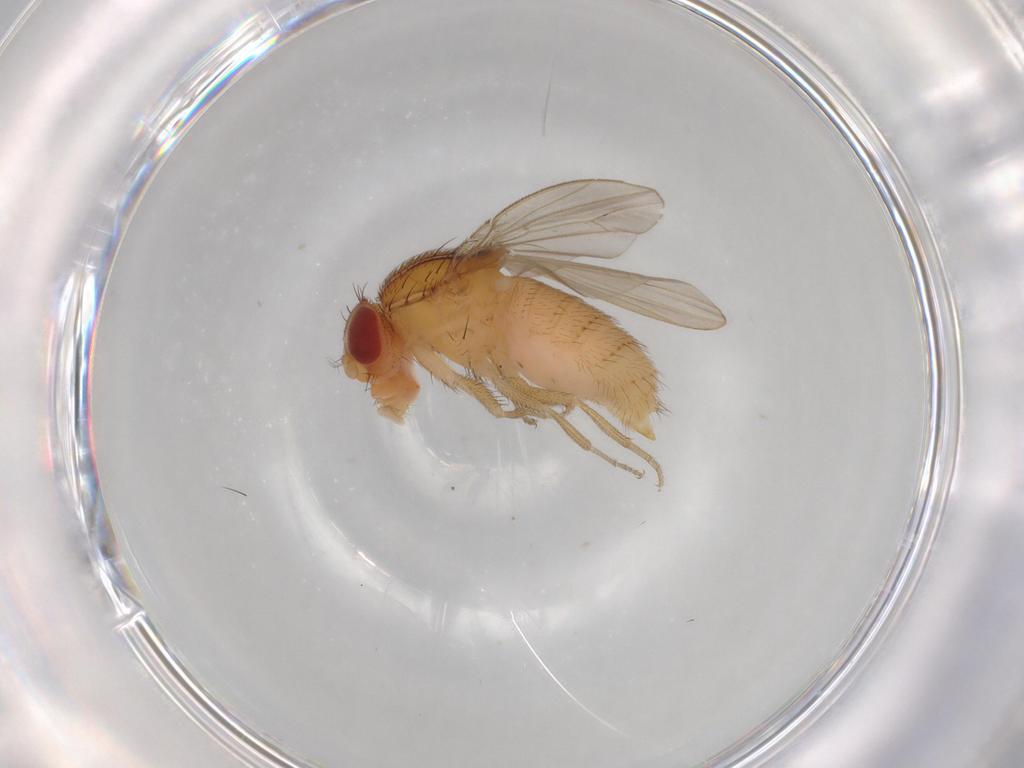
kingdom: Animalia
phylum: Arthropoda
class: Insecta
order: Diptera
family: Drosophilidae
